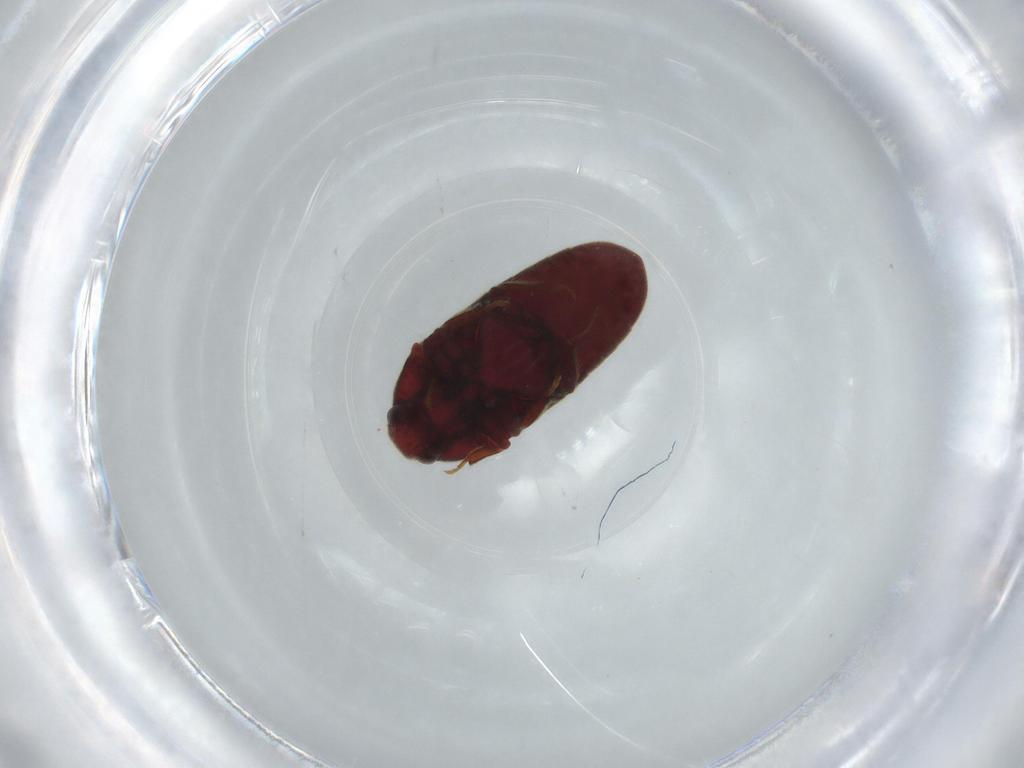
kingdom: Animalia
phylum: Arthropoda
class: Insecta
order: Coleoptera
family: Throscidae
